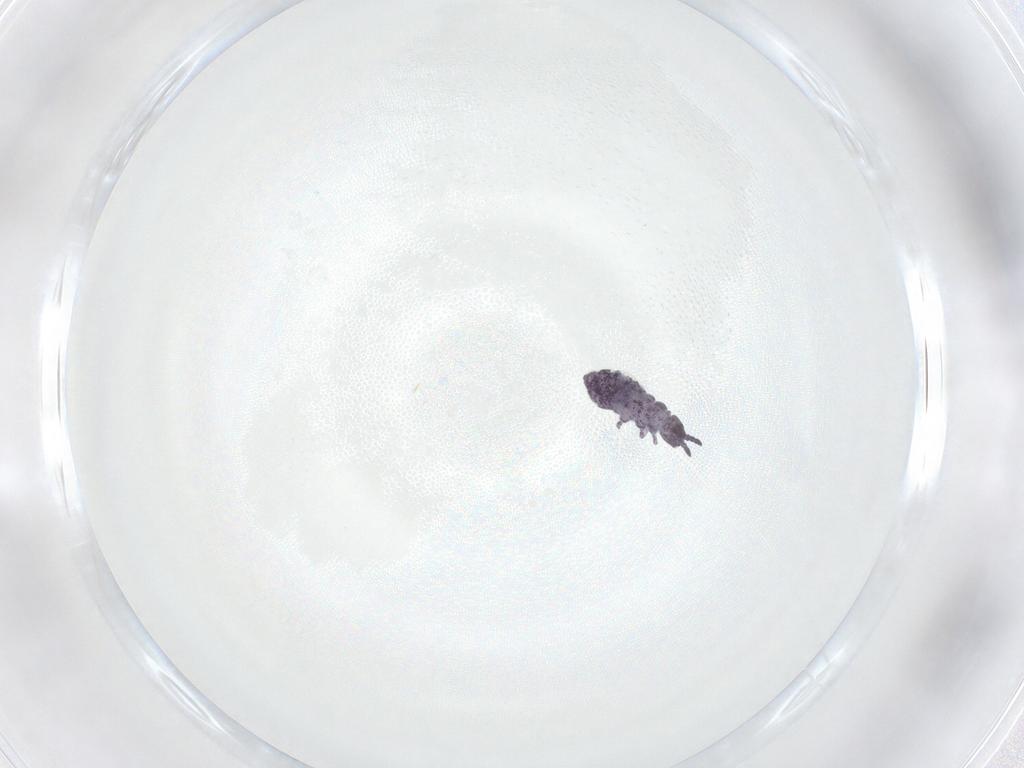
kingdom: Animalia
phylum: Arthropoda
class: Collembola
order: Poduromorpha
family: Brachystomellidae
